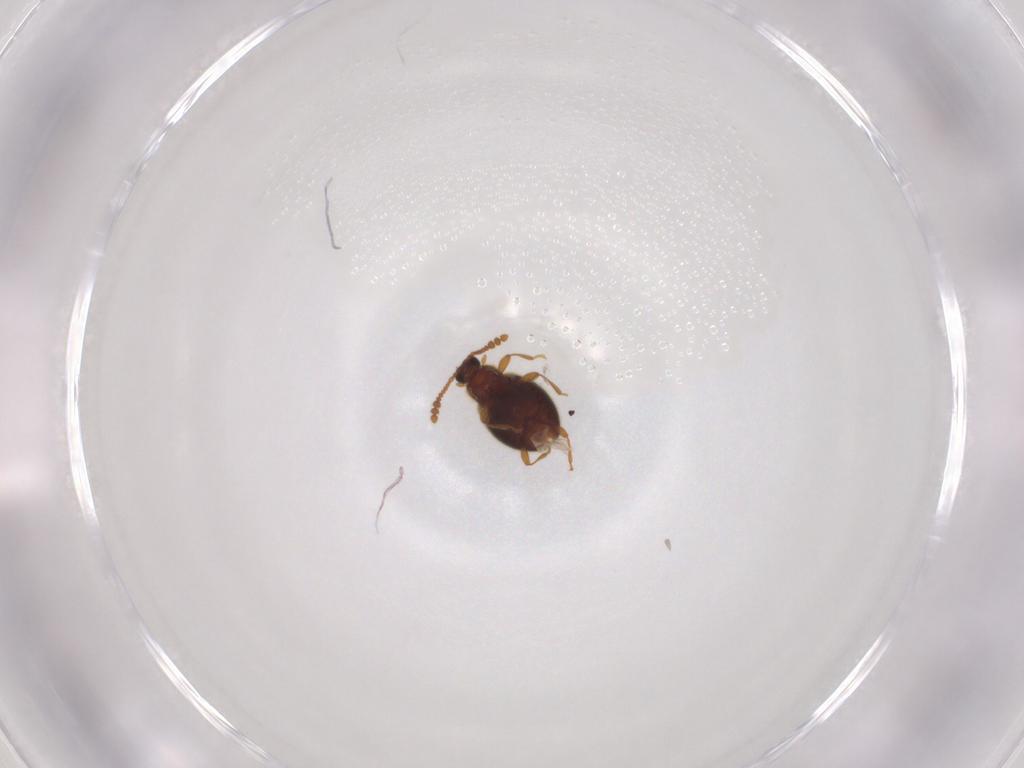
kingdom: Animalia
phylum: Arthropoda
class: Insecta
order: Coleoptera
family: Staphylinidae
